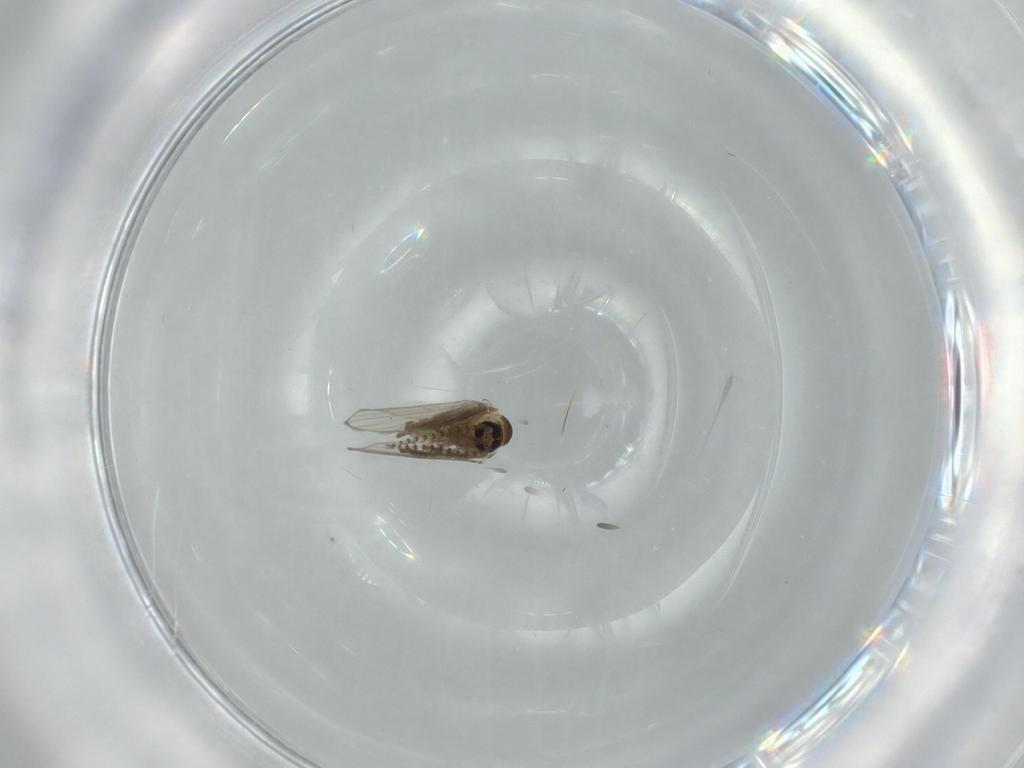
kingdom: Animalia
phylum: Arthropoda
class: Insecta
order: Diptera
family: Psychodidae
